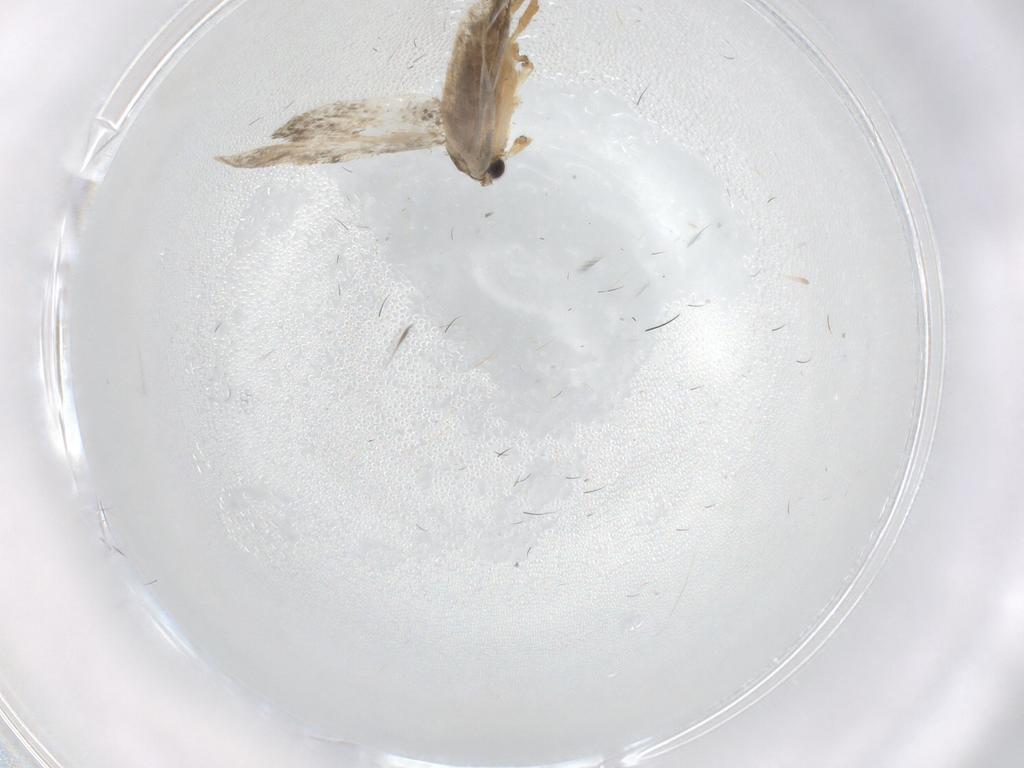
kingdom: Animalia
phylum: Arthropoda
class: Insecta
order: Lepidoptera
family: Psychidae
